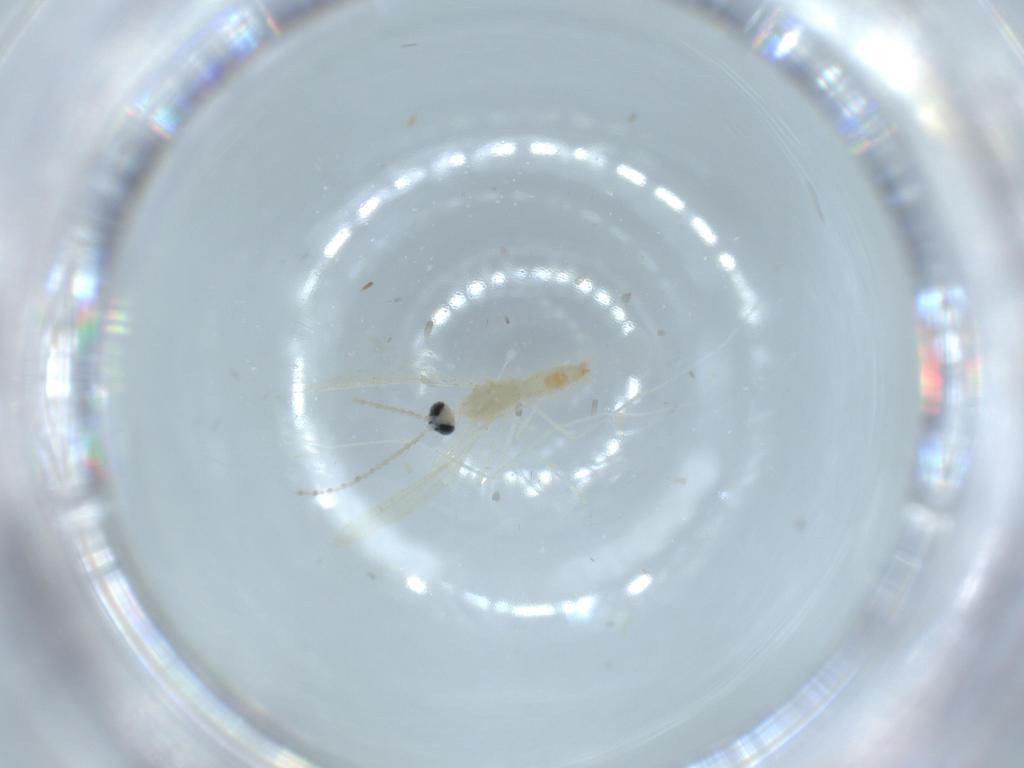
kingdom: Animalia
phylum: Arthropoda
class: Insecta
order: Diptera
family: Cecidomyiidae
